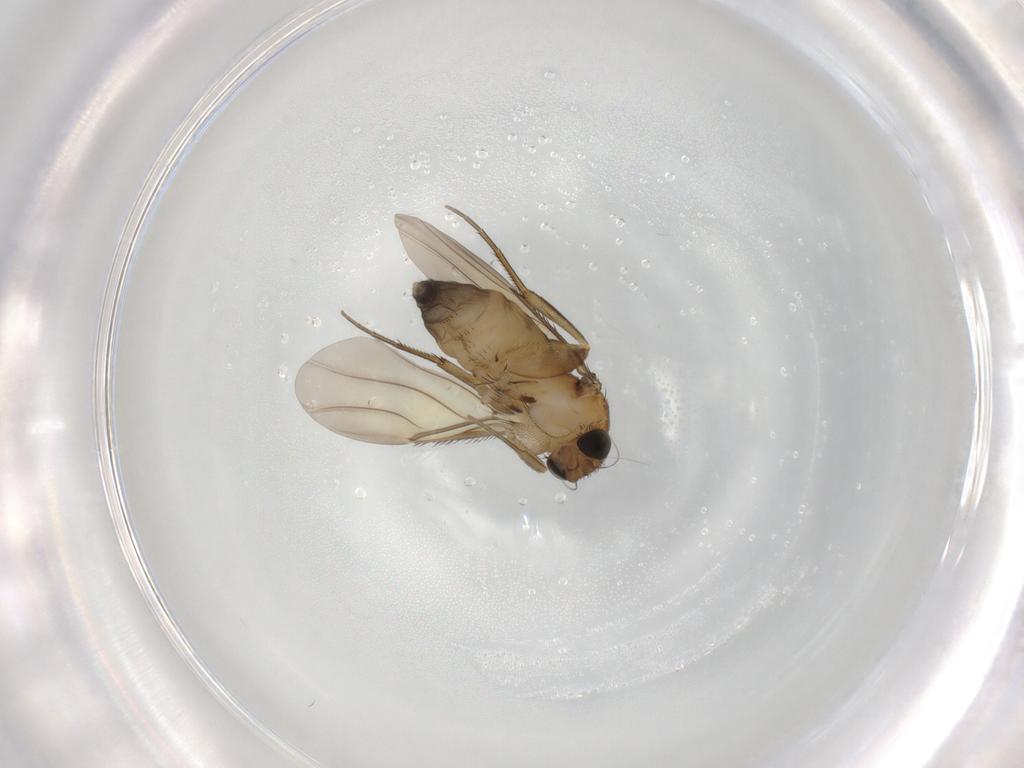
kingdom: Animalia
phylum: Arthropoda
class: Insecta
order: Diptera
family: Phoridae
